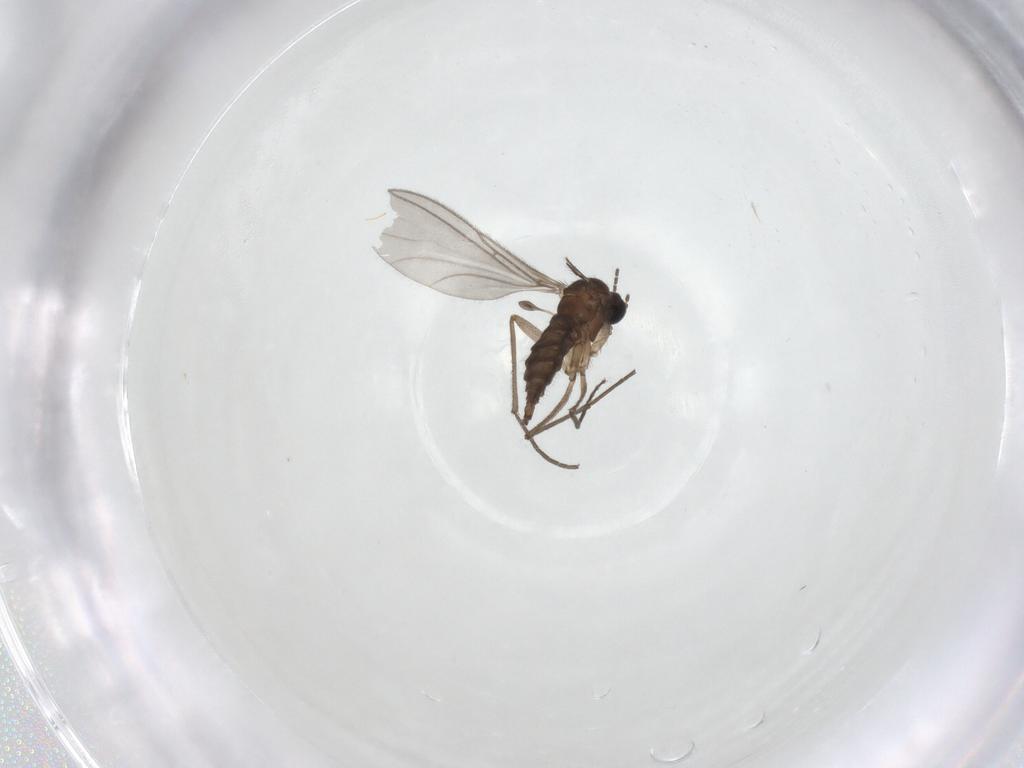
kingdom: Animalia
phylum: Arthropoda
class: Insecta
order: Diptera
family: Sciaridae
